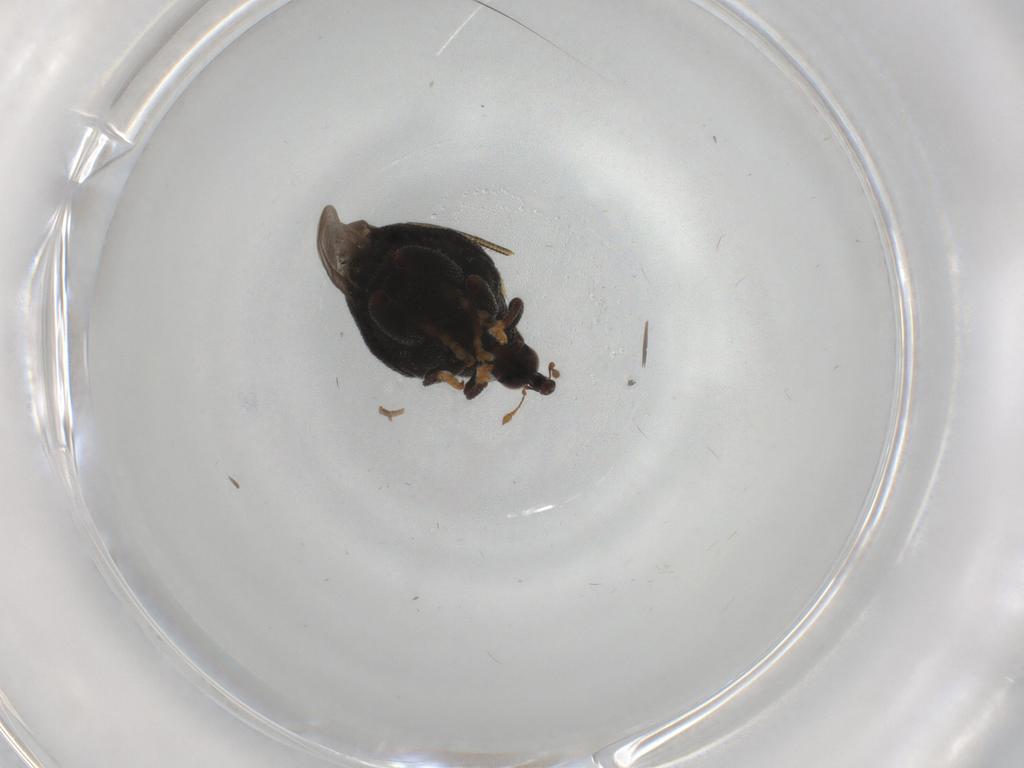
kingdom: Animalia
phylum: Arthropoda
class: Insecta
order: Coleoptera
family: Curculionidae
